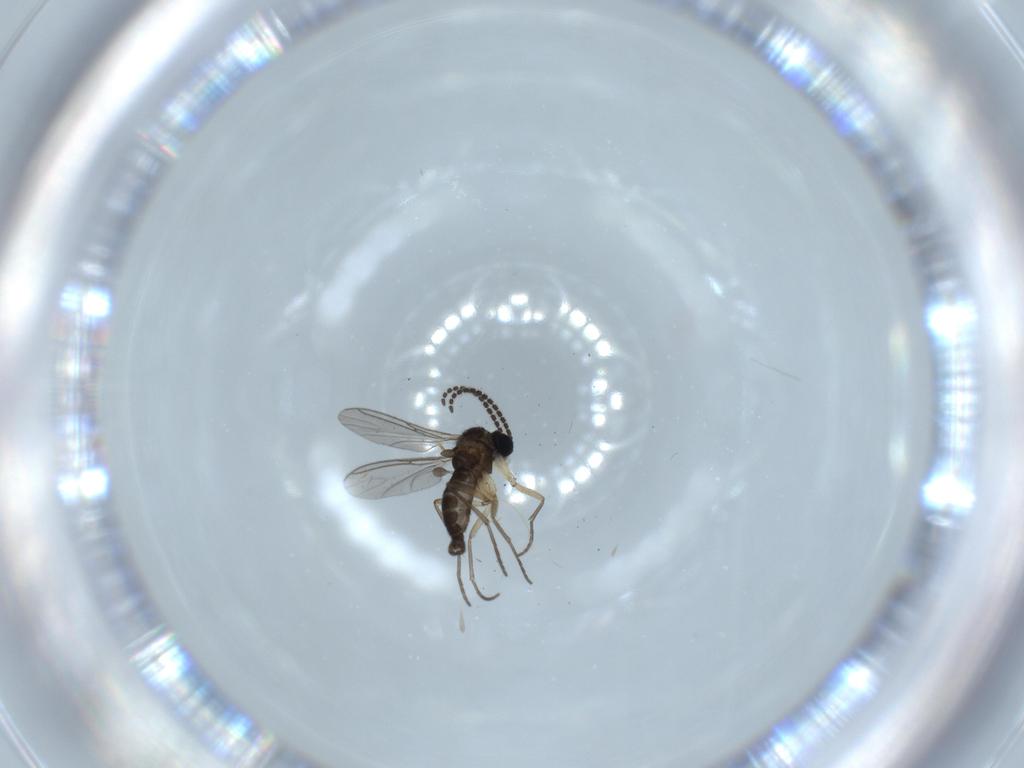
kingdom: Animalia
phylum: Arthropoda
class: Insecta
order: Diptera
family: Sciaridae
